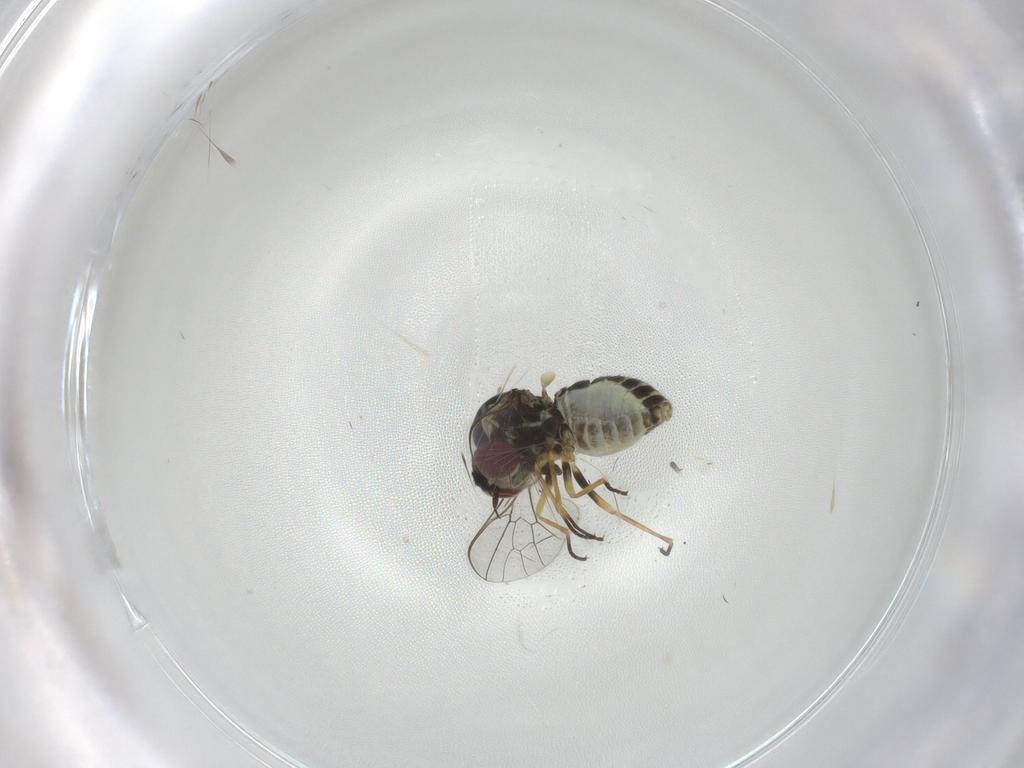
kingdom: Animalia
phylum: Arthropoda
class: Insecta
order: Diptera
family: Bombyliidae
